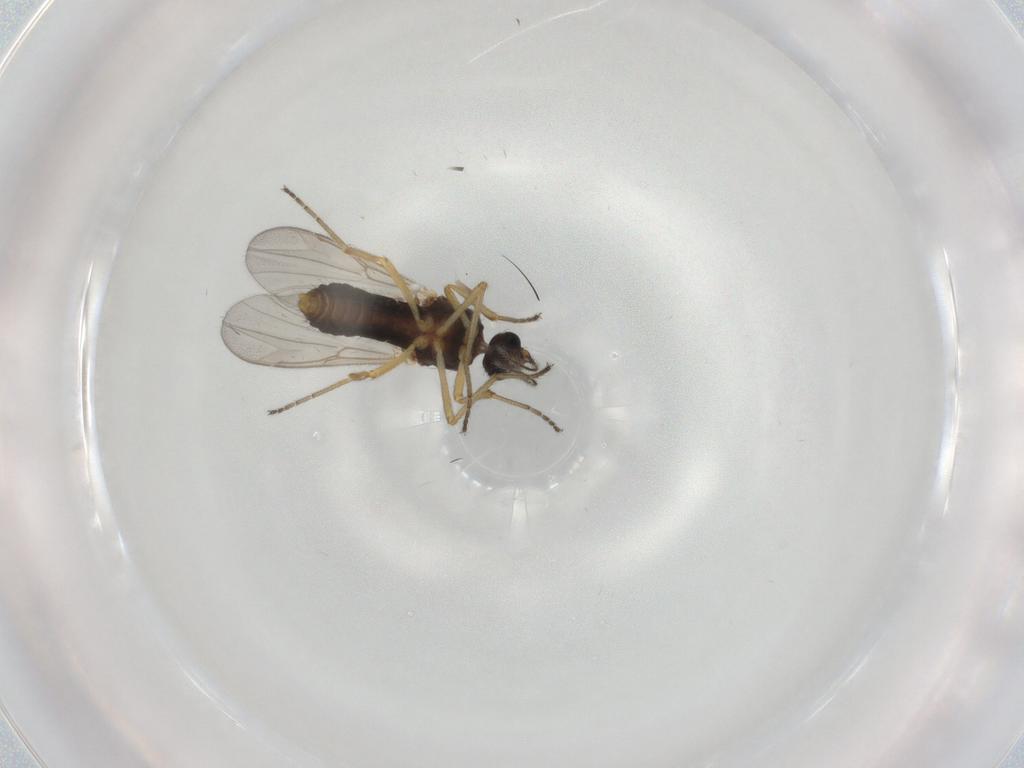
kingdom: Animalia
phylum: Arthropoda
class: Insecta
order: Diptera
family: Ceratopogonidae
